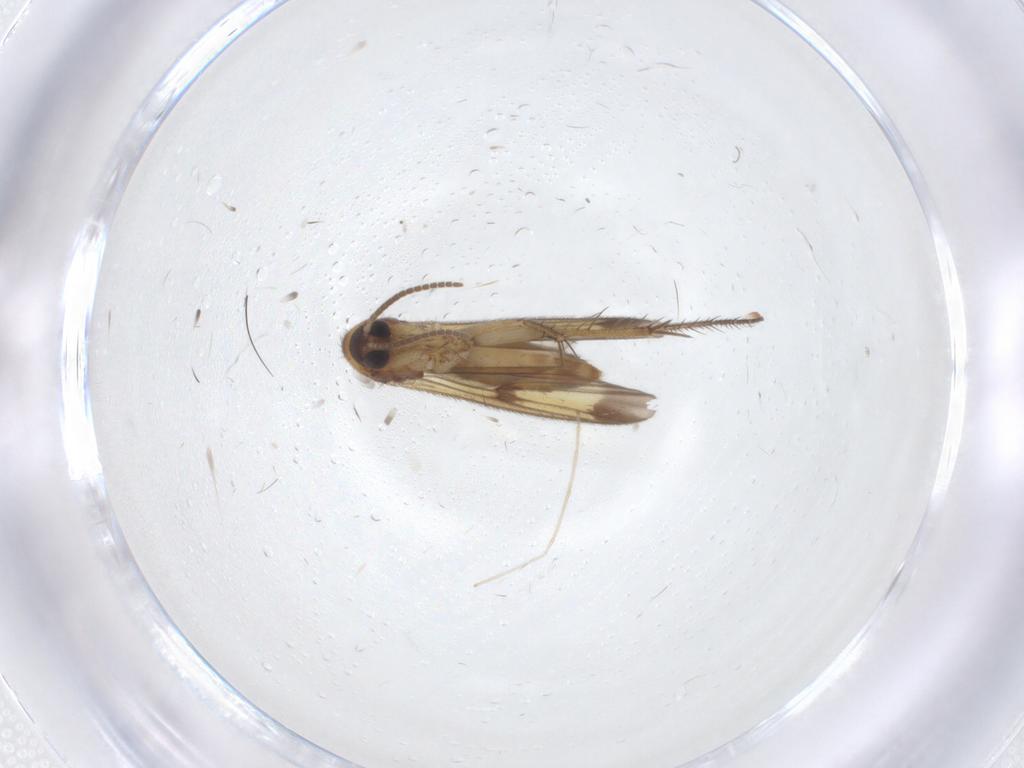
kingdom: Animalia
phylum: Arthropoda
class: Insecta
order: Diptera
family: Mycetophilidae
